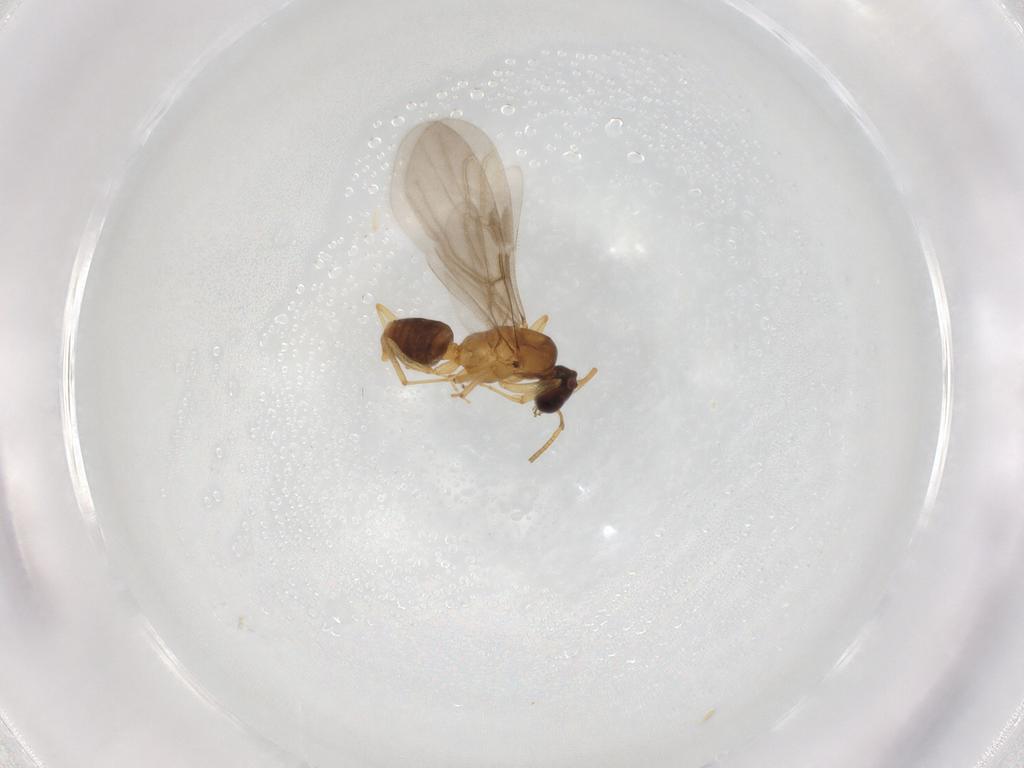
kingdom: Animalia
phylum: Arthropoda
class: Insecta
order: Hymenoptera
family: Formicidae
